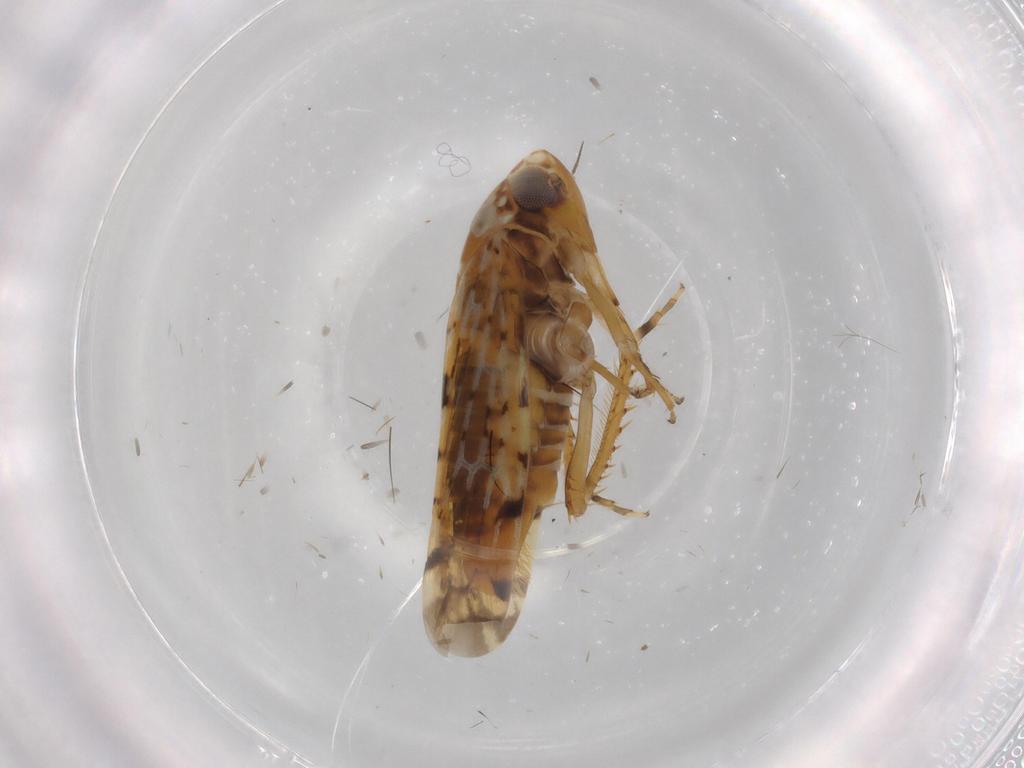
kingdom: Animalia
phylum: Arthropoda
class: Insecta
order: Hemiptera
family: Cicadellidae
